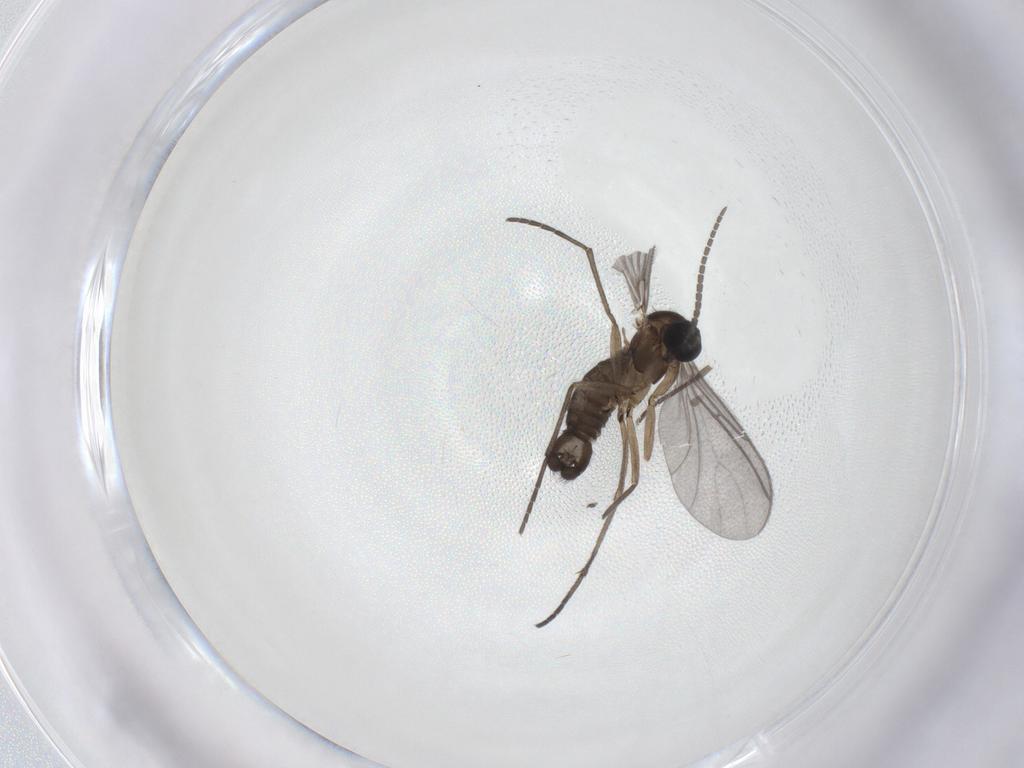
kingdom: Animalia
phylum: Arthropoda
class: Insecta
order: Diptera
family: Sciaridae
